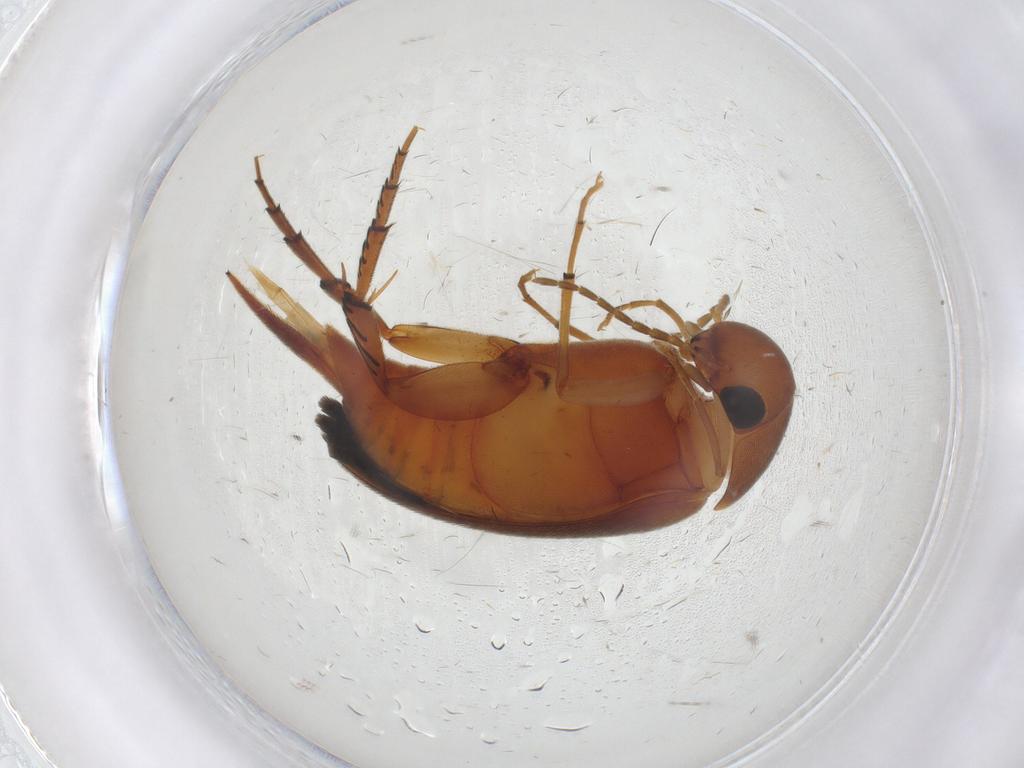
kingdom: Animalia
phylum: Arthropoda
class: Insecta
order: Coleoptera
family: Mordellidae
